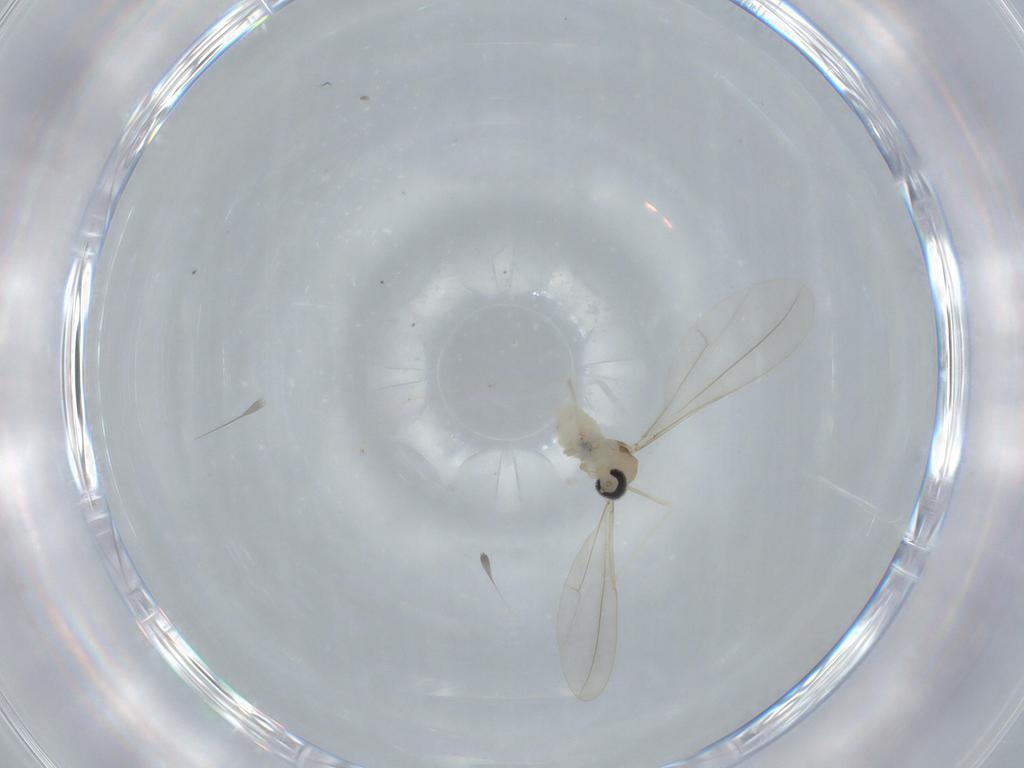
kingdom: Animalia
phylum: Arthropoda
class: Insecta
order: Diptera
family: Cecidomyiidae
